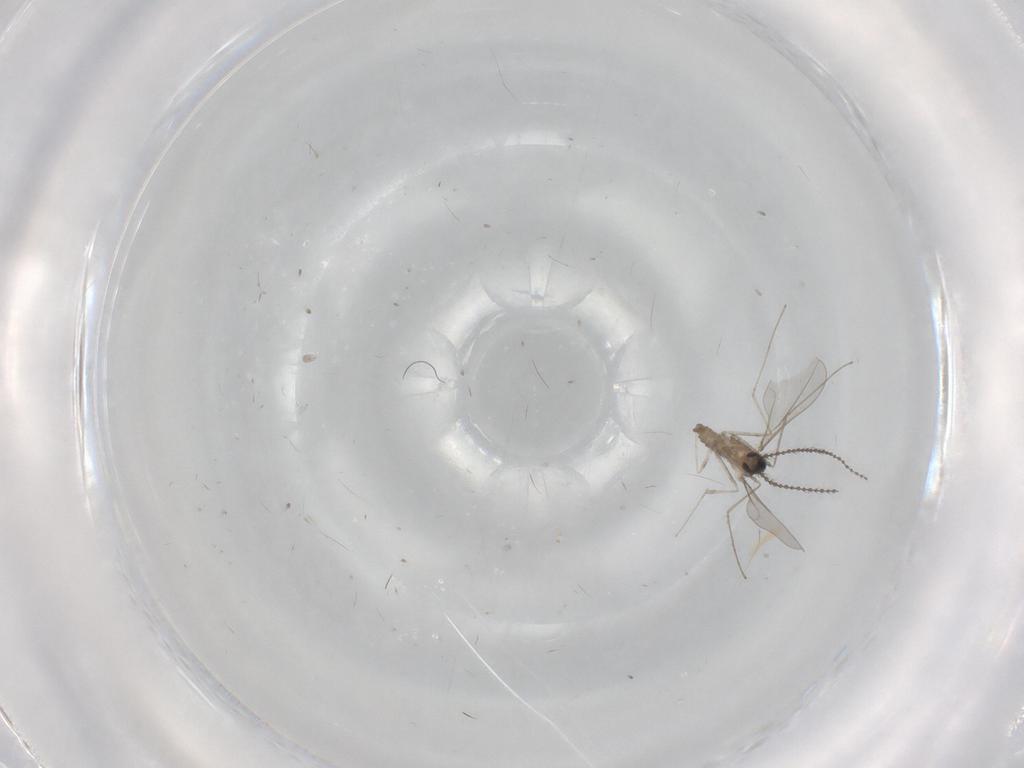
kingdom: Animalia
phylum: Arthropoda
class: Insecta
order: Diptera
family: Cecidomyiidae
